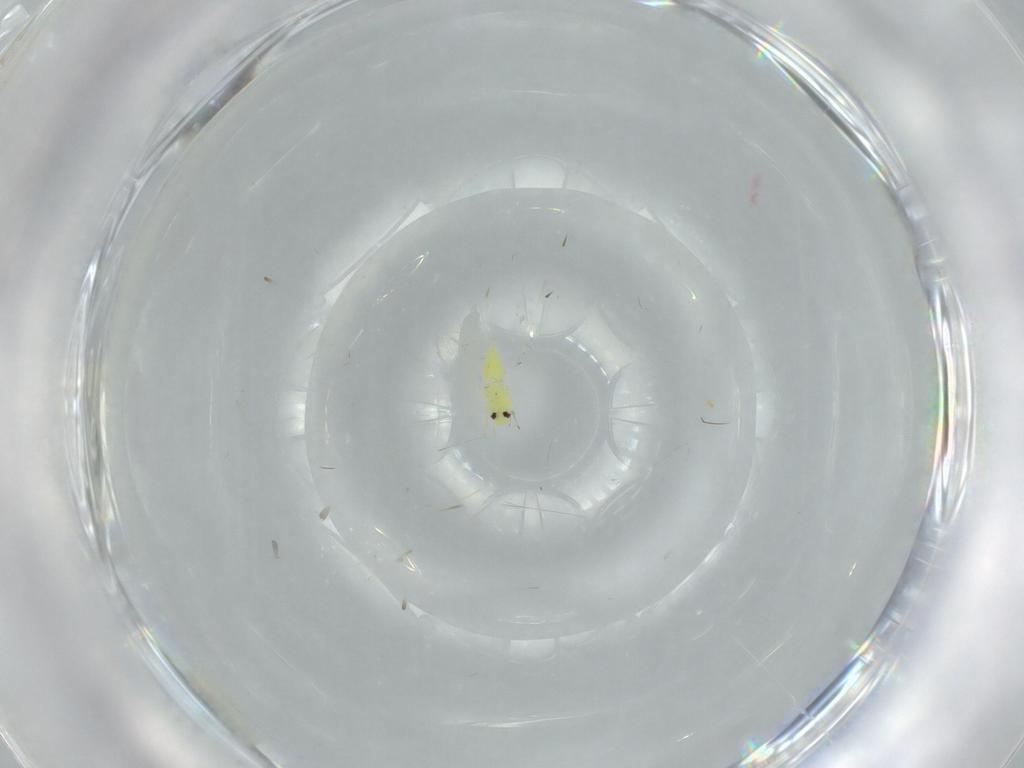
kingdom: Animalia
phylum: Arthropoda
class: Insecta
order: Hemiptera
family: Aleyrodidae
